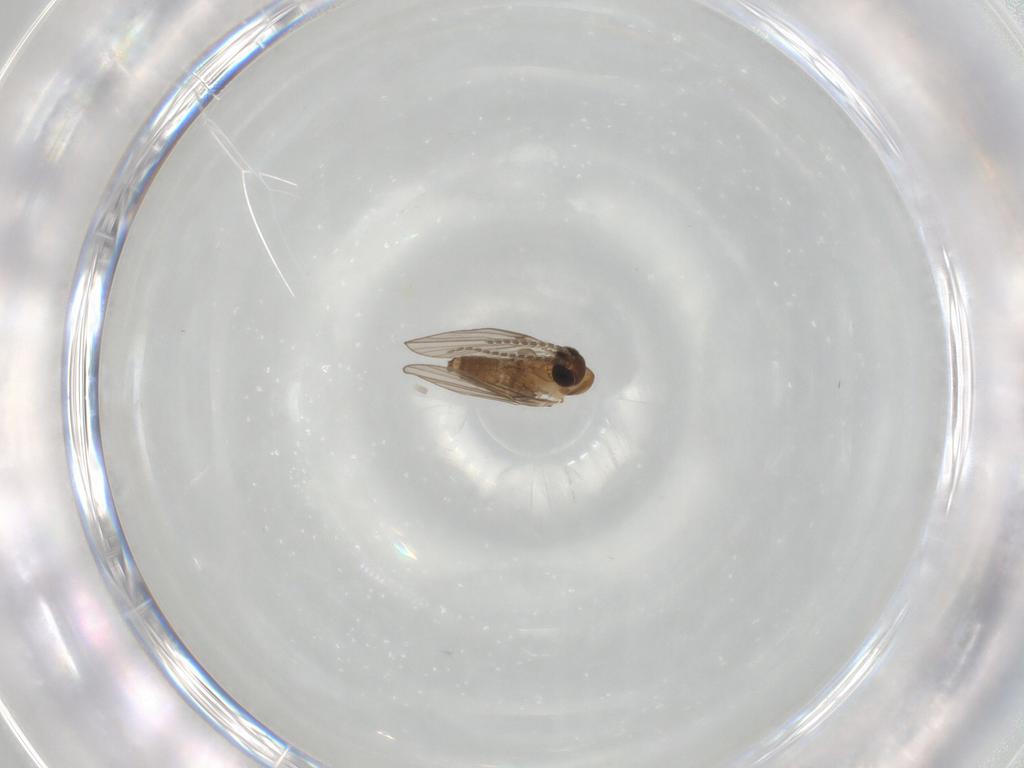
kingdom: Animalia
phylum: Arthropoda
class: Insecta
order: Diptera
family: Psychodidae
